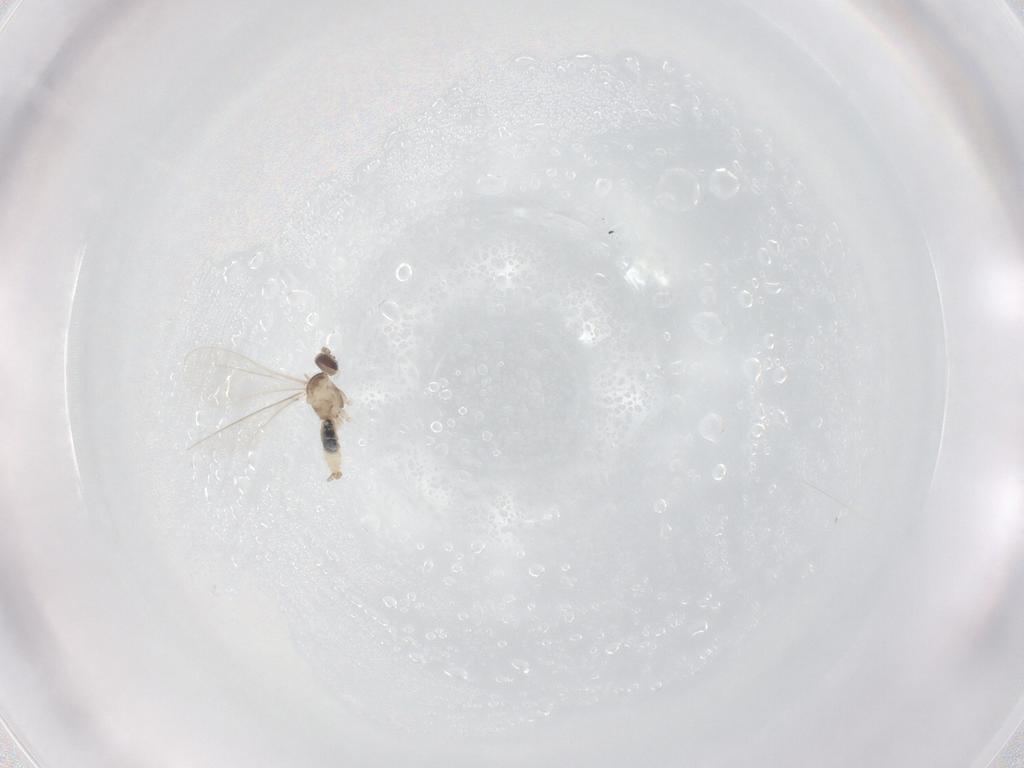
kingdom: Animalia
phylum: Arthropoda
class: Insecta
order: Diptera
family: Cecidomyiidae
